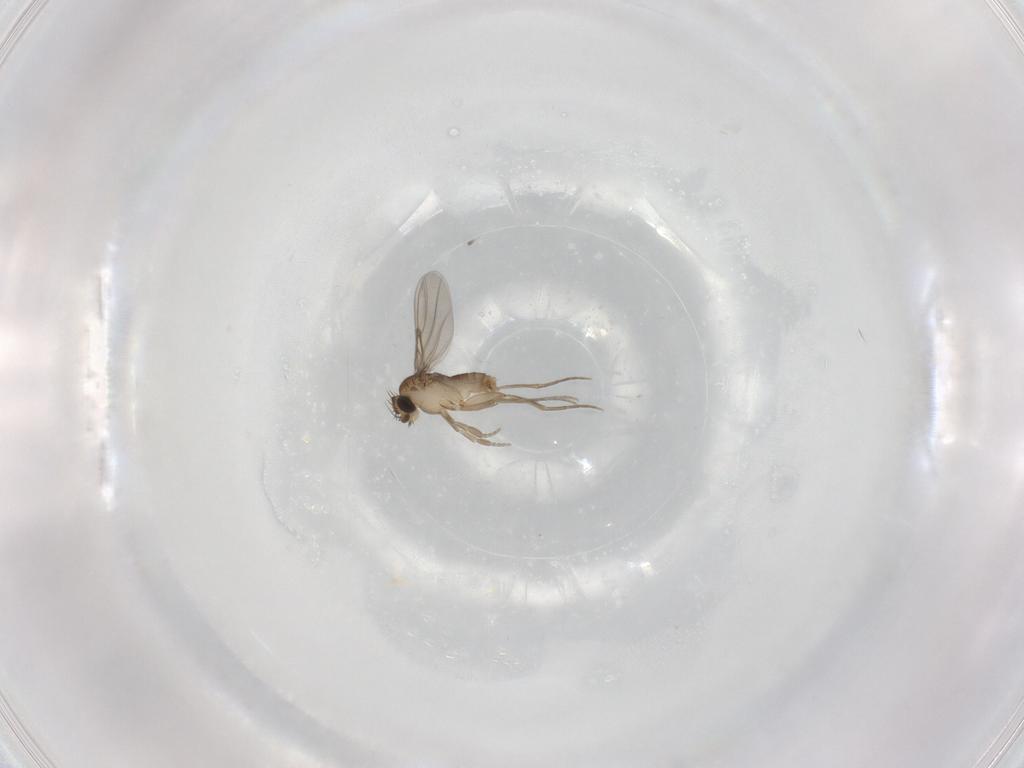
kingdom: Animalia
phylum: Arthropoda
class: Insecta
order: Diptera
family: Phoridae
